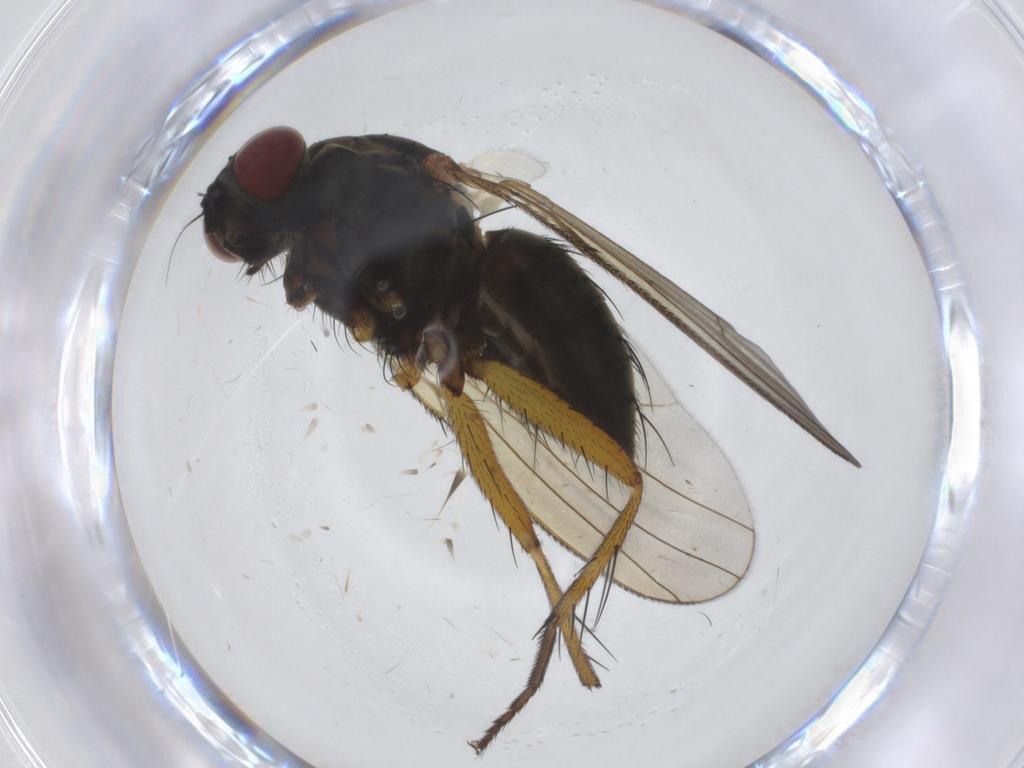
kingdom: Animalia
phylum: Arthropoda
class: Insecta
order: Diptera
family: Muscidae
